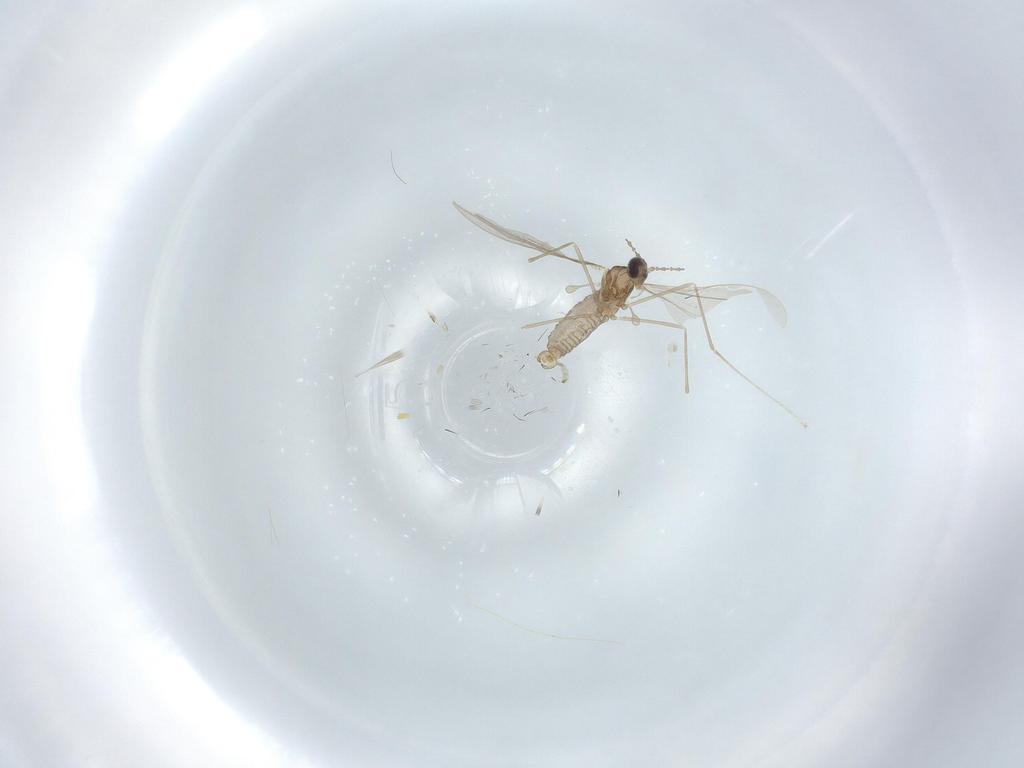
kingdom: Animalia
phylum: Arthropoda
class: Insecta
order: Diptera
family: Cecidomyiidae
